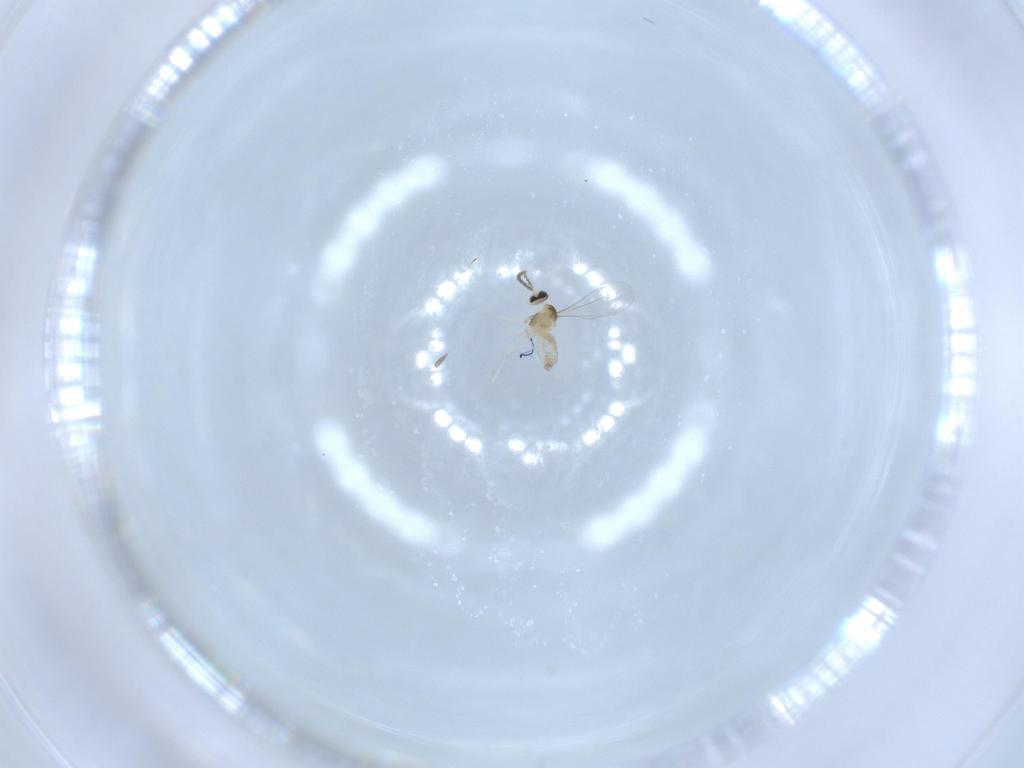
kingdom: Animalia
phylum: Arthropoda
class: Insecta
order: Diptera
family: Cecidomyiidae
